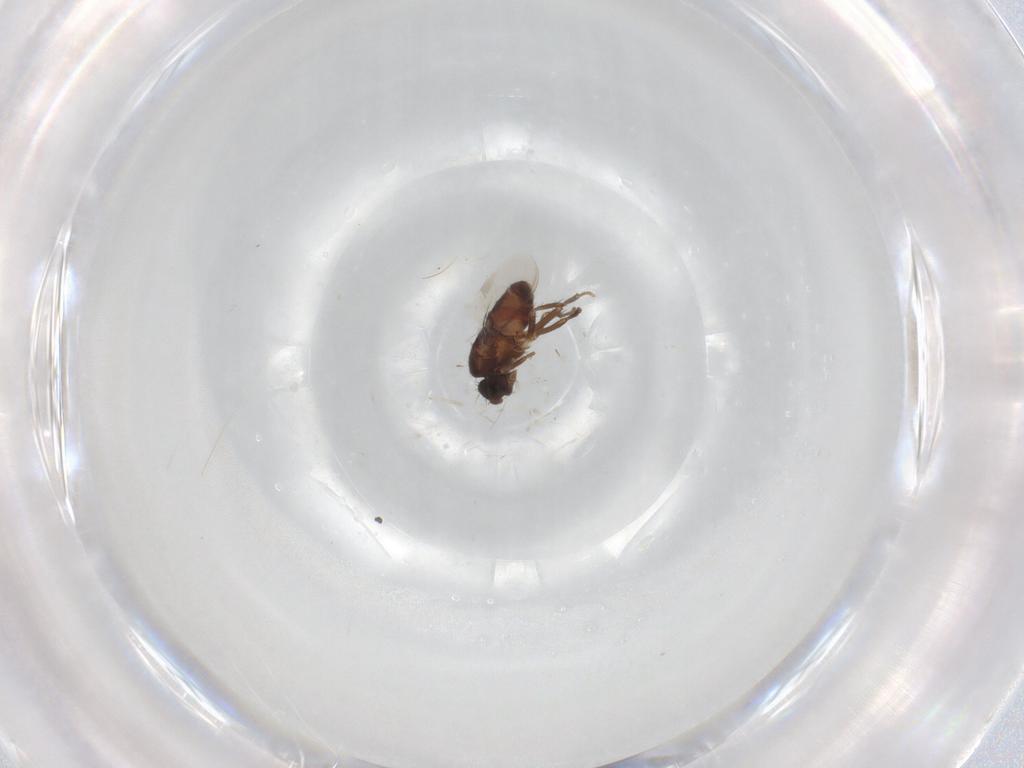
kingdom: Animalia
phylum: Arthropoda
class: Insecta
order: Diptera
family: Sphaeroceridae
